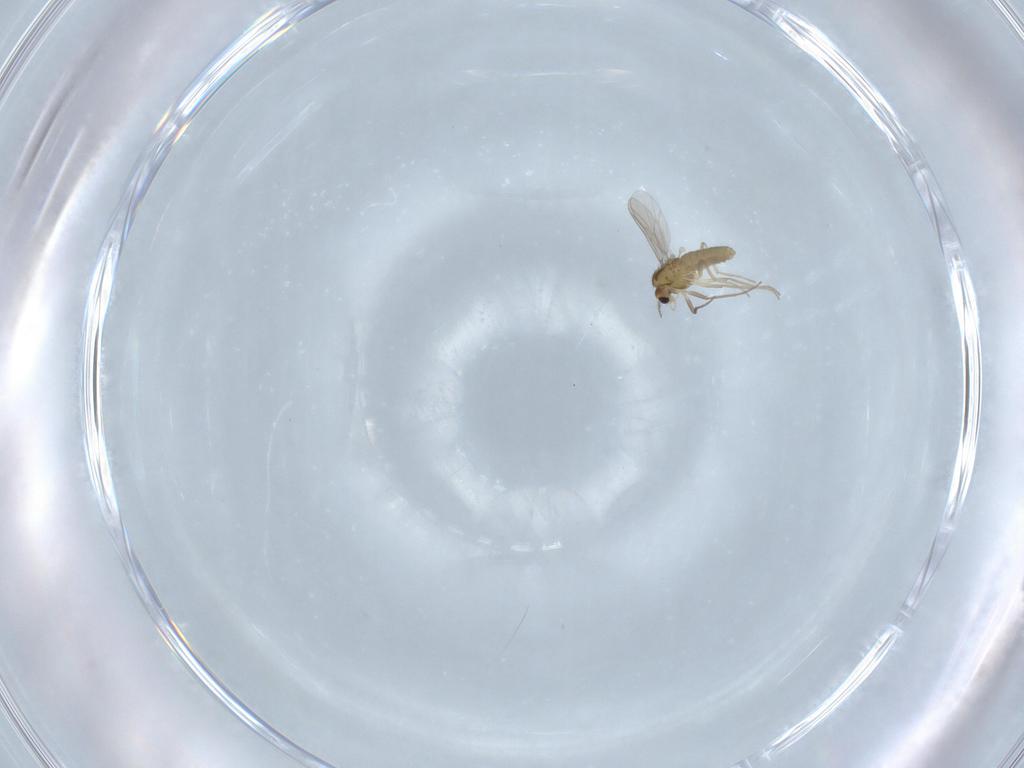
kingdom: Animalia
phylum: Arthropoda
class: Insecta
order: Diptera
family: Chironomidae
